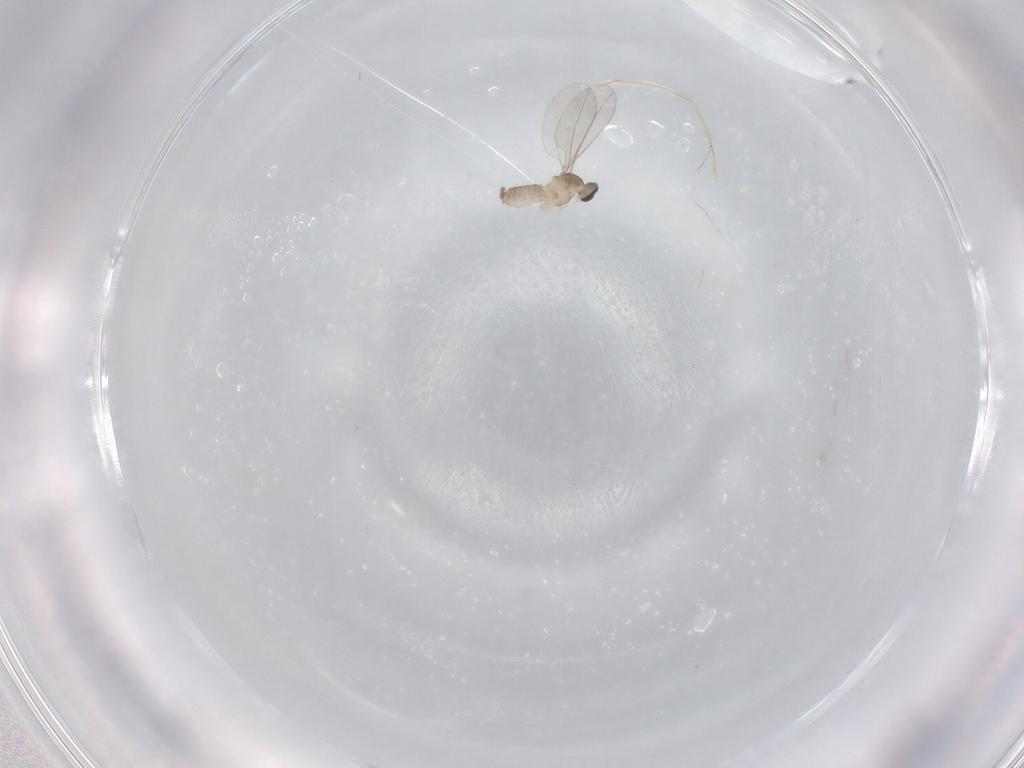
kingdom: Animalia
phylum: Arthropoda
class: Insecta
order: Diptera
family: Cecidomyiidae
